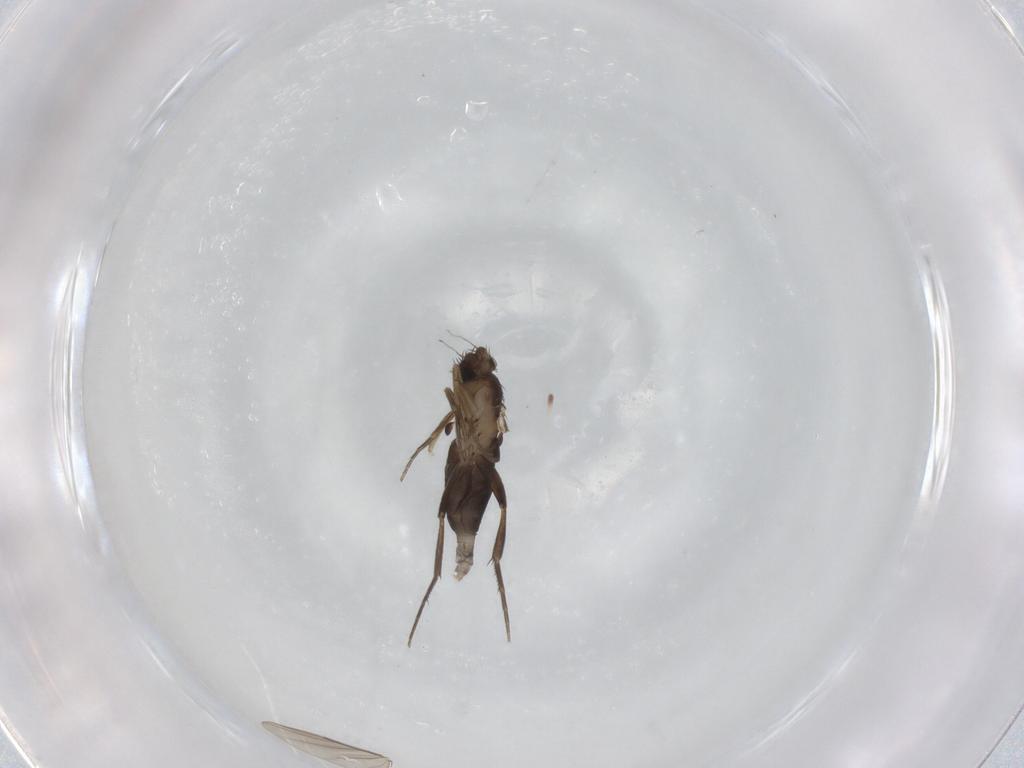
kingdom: Animalia
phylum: Arthropoda
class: Insecta
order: Diptera
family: Phoridae
